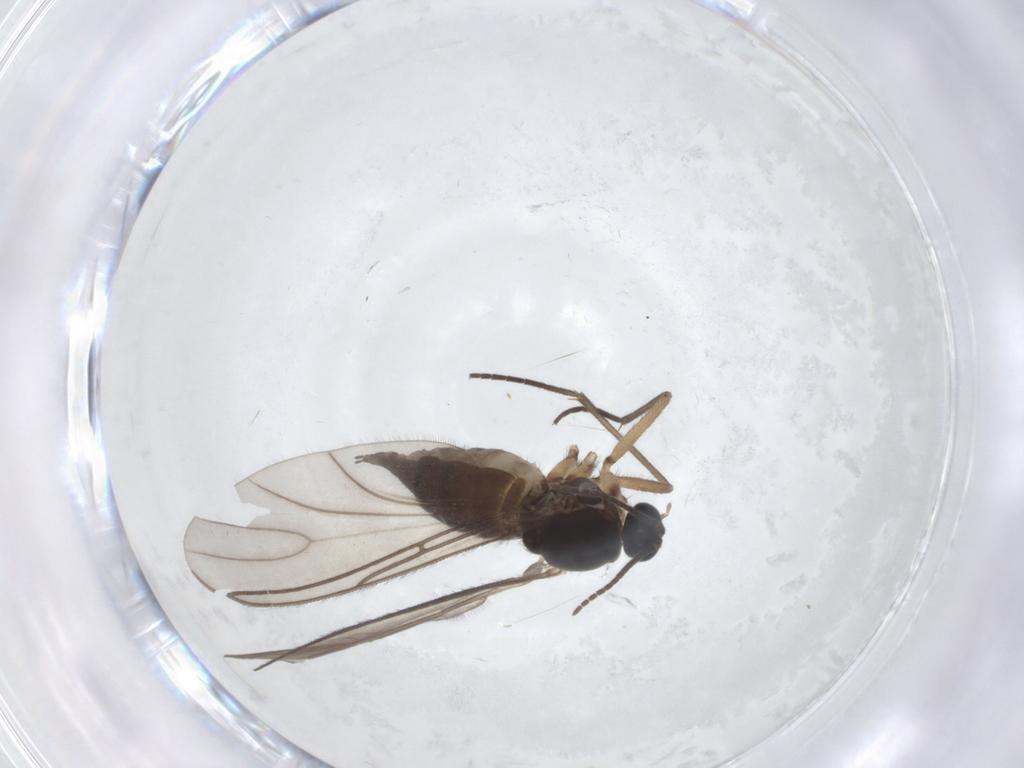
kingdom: Animalia
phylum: Arthropoda
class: Insecta
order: Diptera
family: Sciaridae
